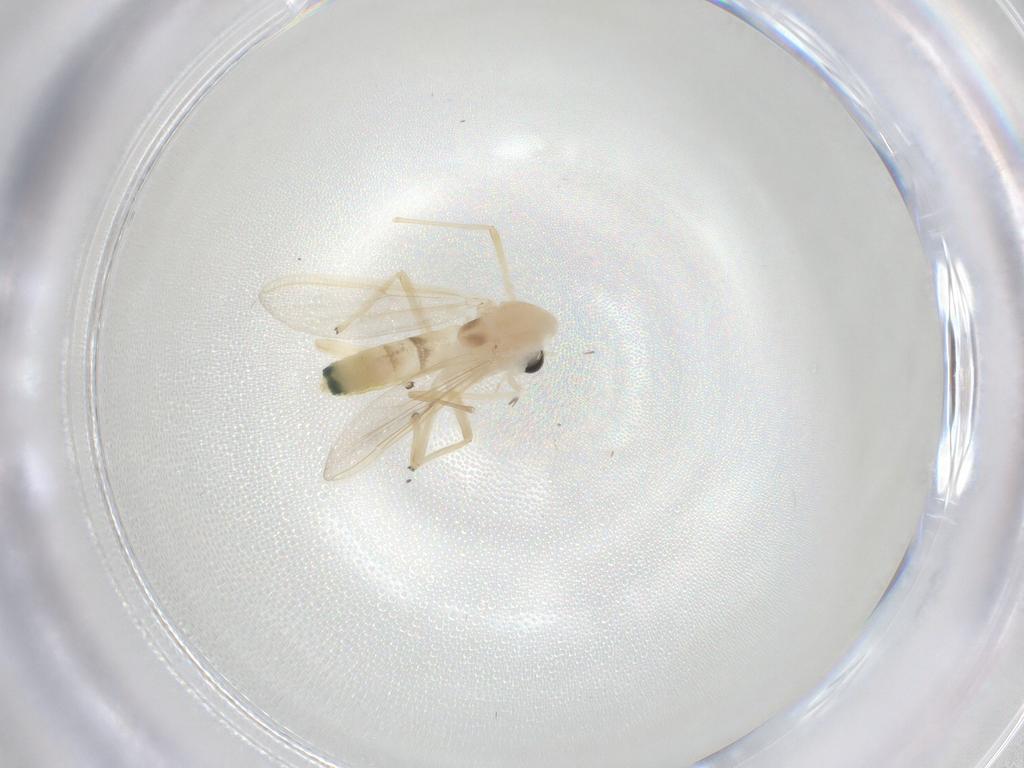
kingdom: Animalia
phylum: Arthropoda
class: Insecta
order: Diptera
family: Chironomidae
